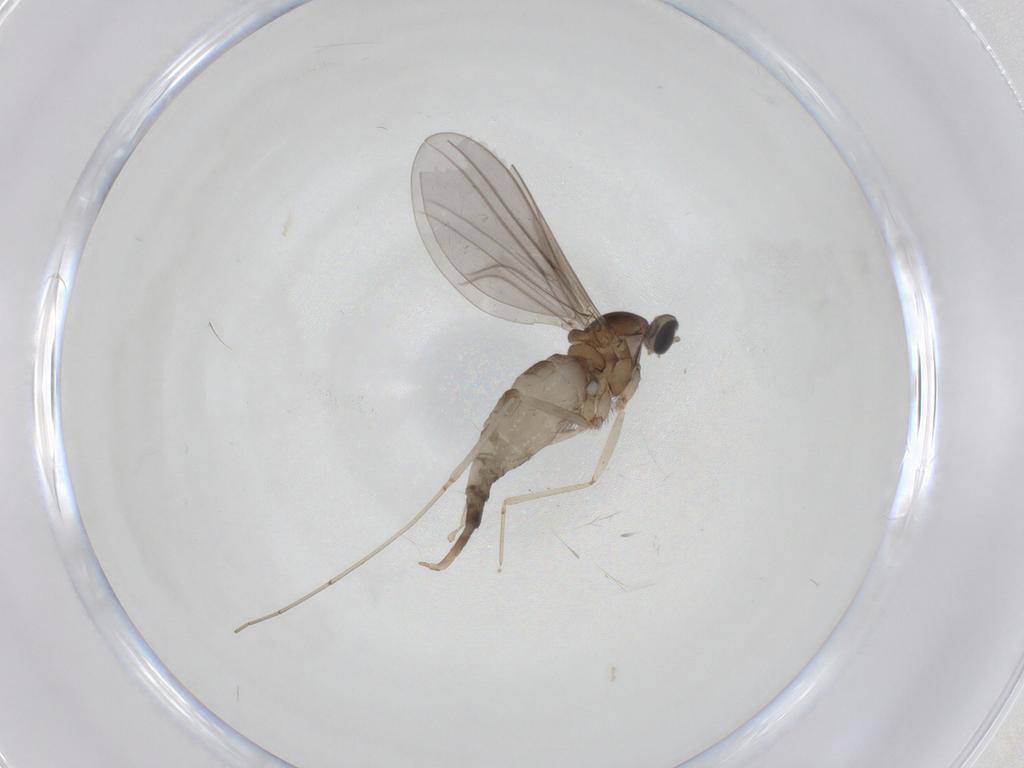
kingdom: Animalia
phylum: Arthropoda
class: Insecta
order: Diptera
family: Cecidomyiidae
